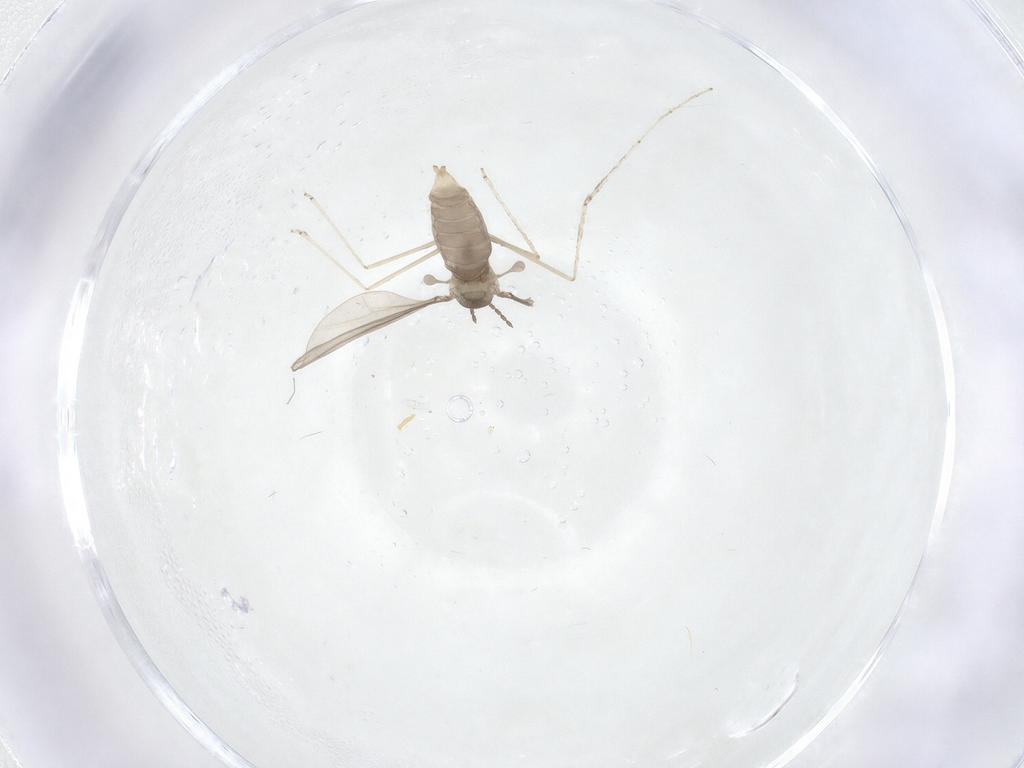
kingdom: Animalia
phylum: Arthropoda
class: Insecta
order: Diptera
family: Cecidomyiidae
